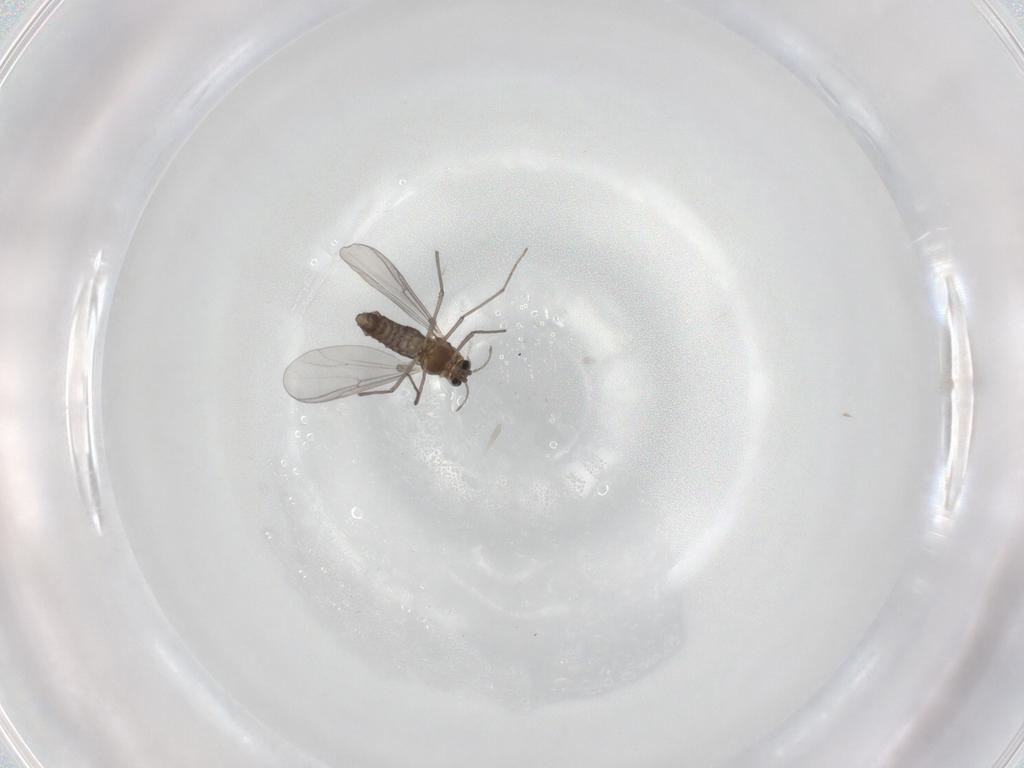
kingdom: Animalia
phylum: Arthropoda
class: Insecta
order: Diptera
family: Chironomidae
